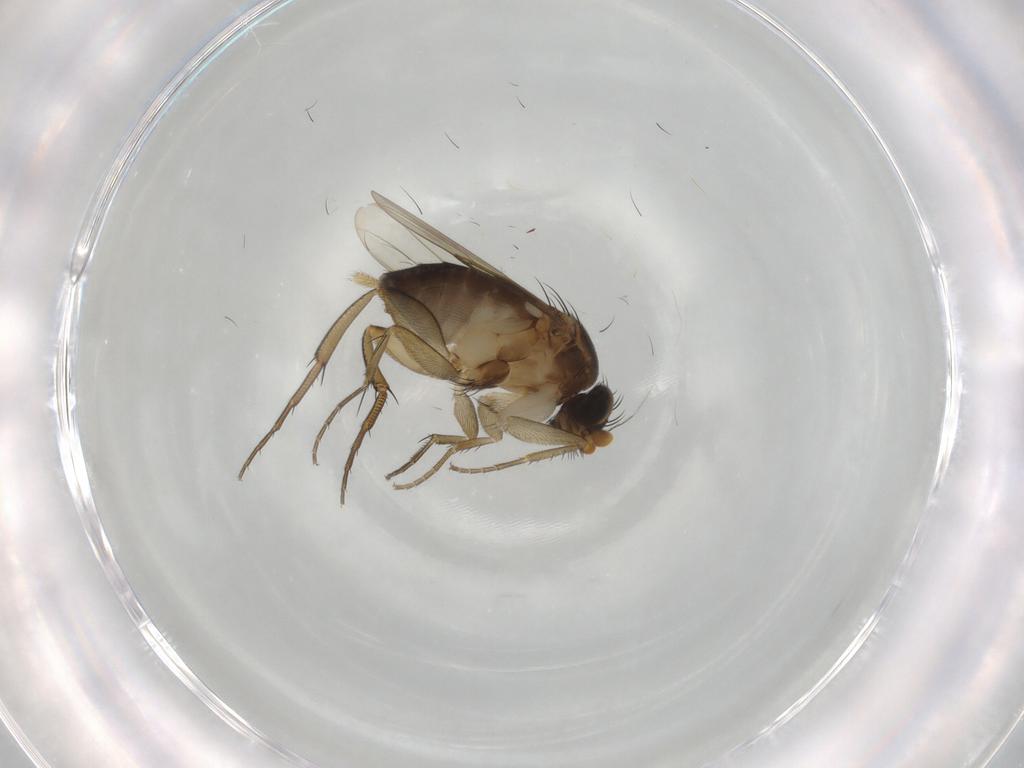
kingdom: Animalia
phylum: Arthropoda
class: Insecta
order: Diptera
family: Phoridae
